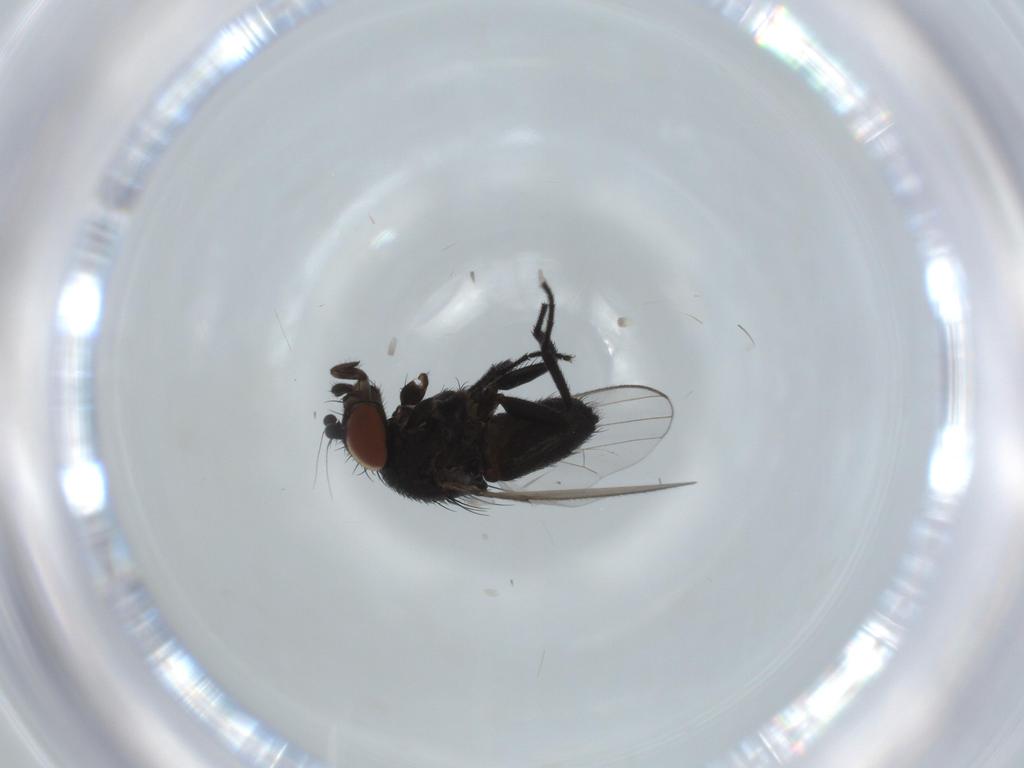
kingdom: Animalia
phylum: Arthropoda
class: Insecta
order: Diptera
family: Milichiidae
